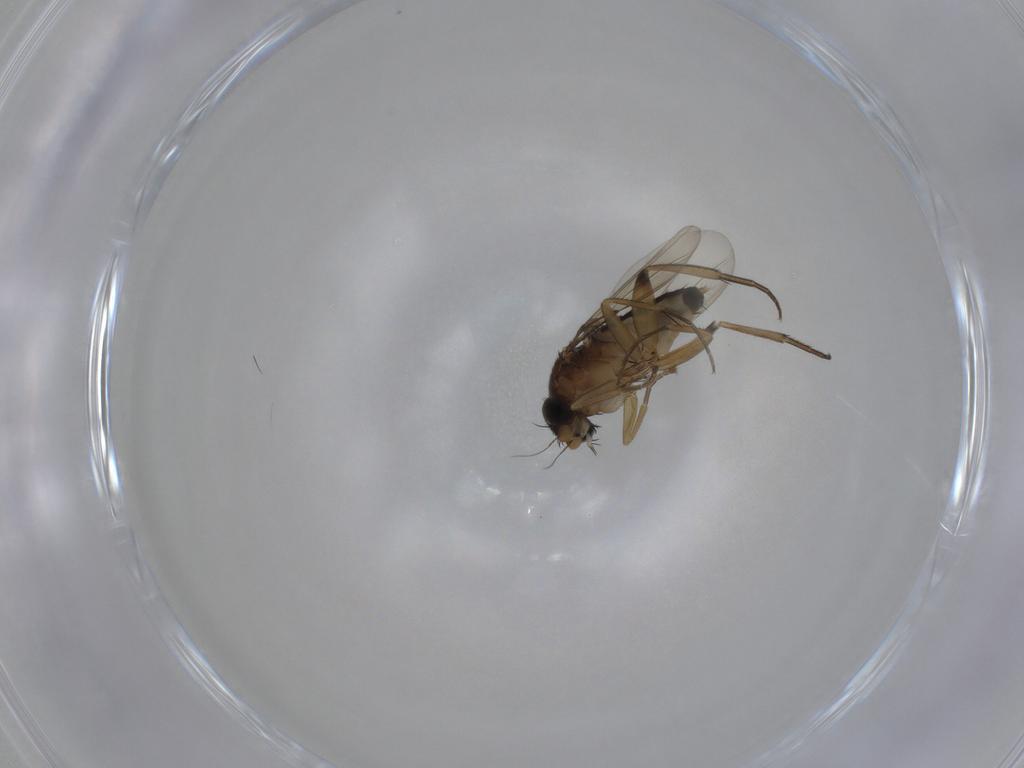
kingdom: Animalia
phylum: Arthropoda
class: Insecta
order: Diptera
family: Phoridae
